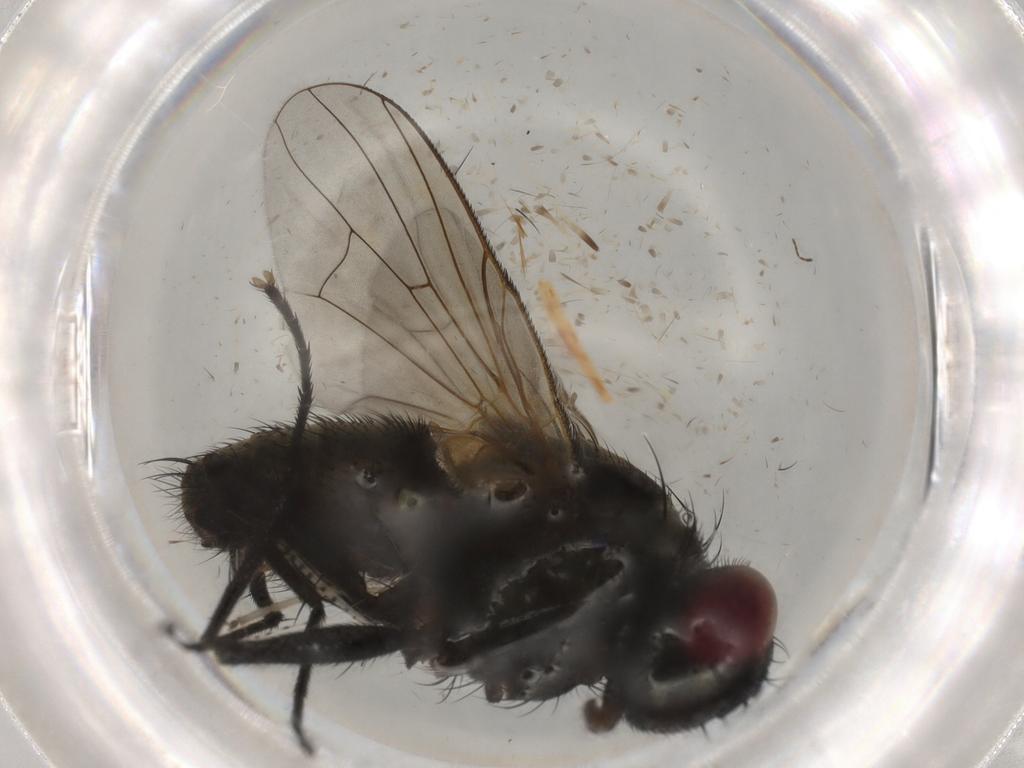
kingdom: Animalia
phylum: Arthropoda
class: Insecta
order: Diptera
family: Muscidae
